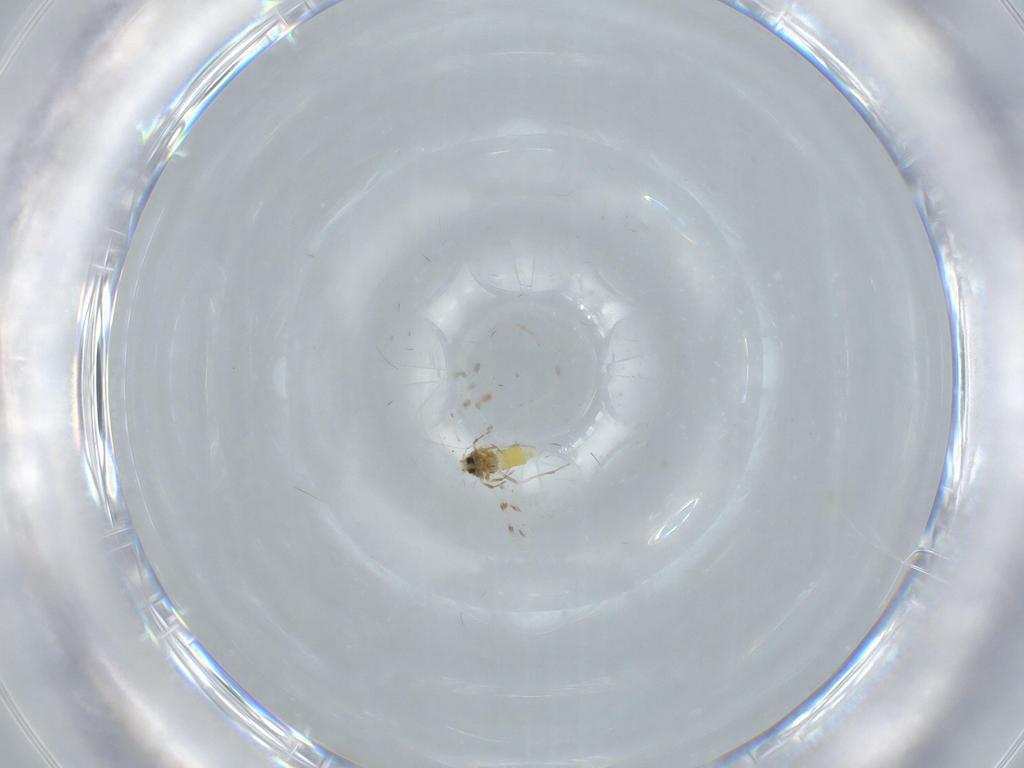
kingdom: Animalia
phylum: Arthropoda
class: Insecta
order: Hemiptera
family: Aleyrodidae
